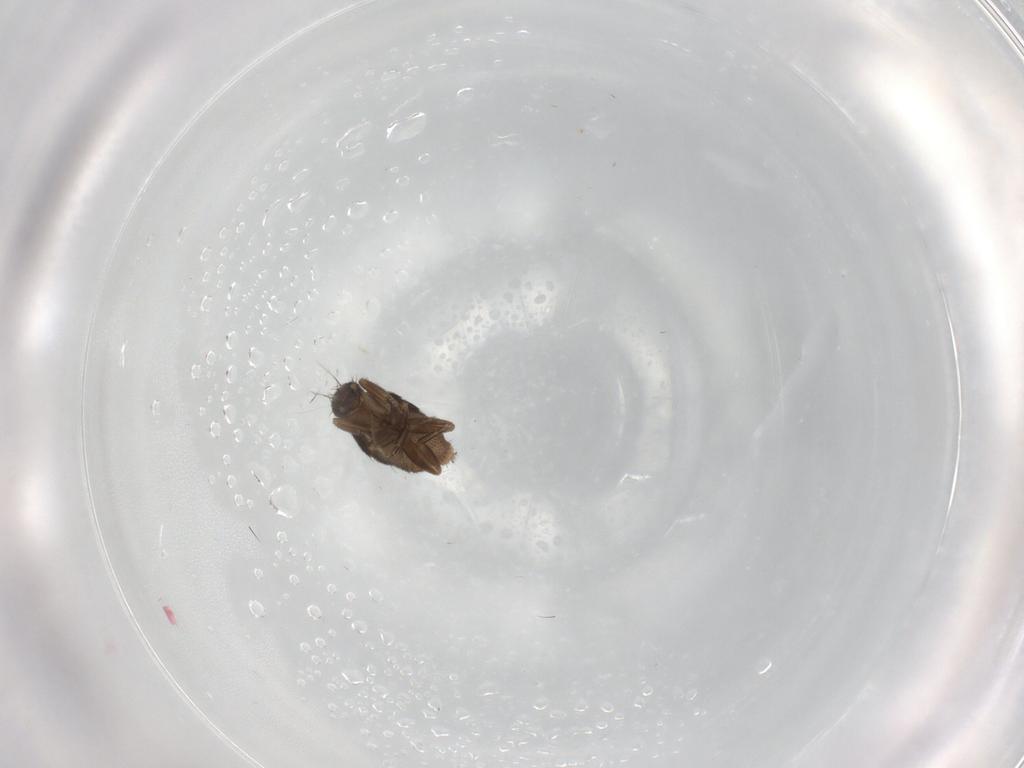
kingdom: Animalia
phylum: Arthropoda
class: Insecta
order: Diptera
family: Phoridae
